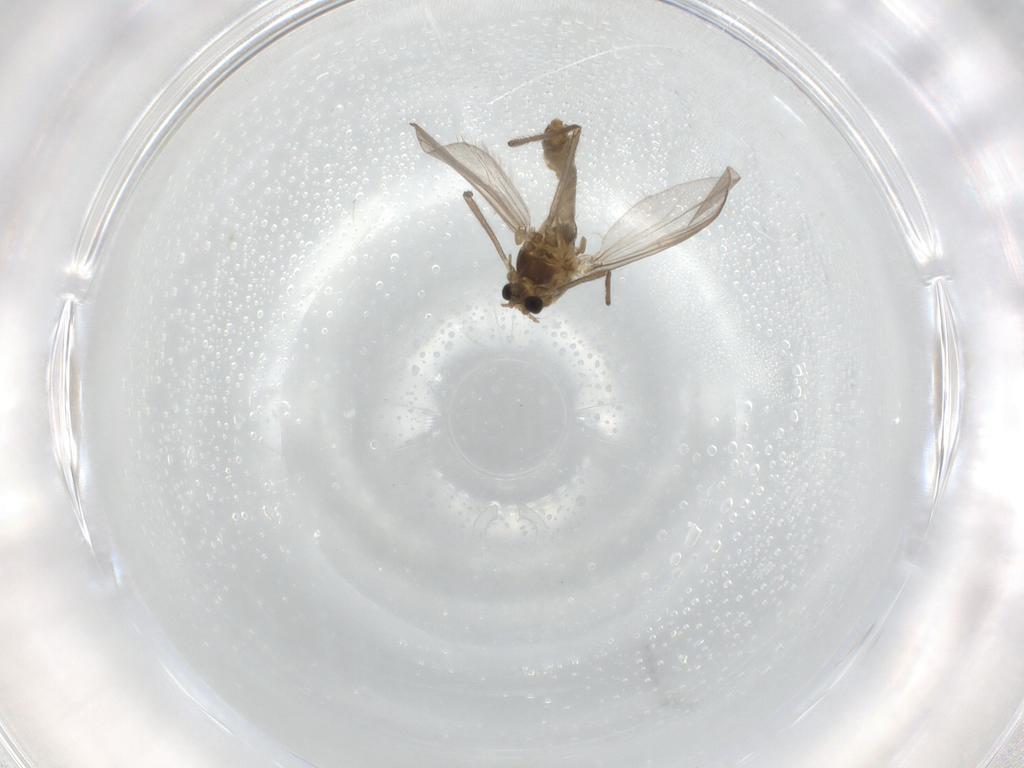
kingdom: Animalia
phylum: Arthropoda
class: Insecta
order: Diptera
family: Chironomidae
